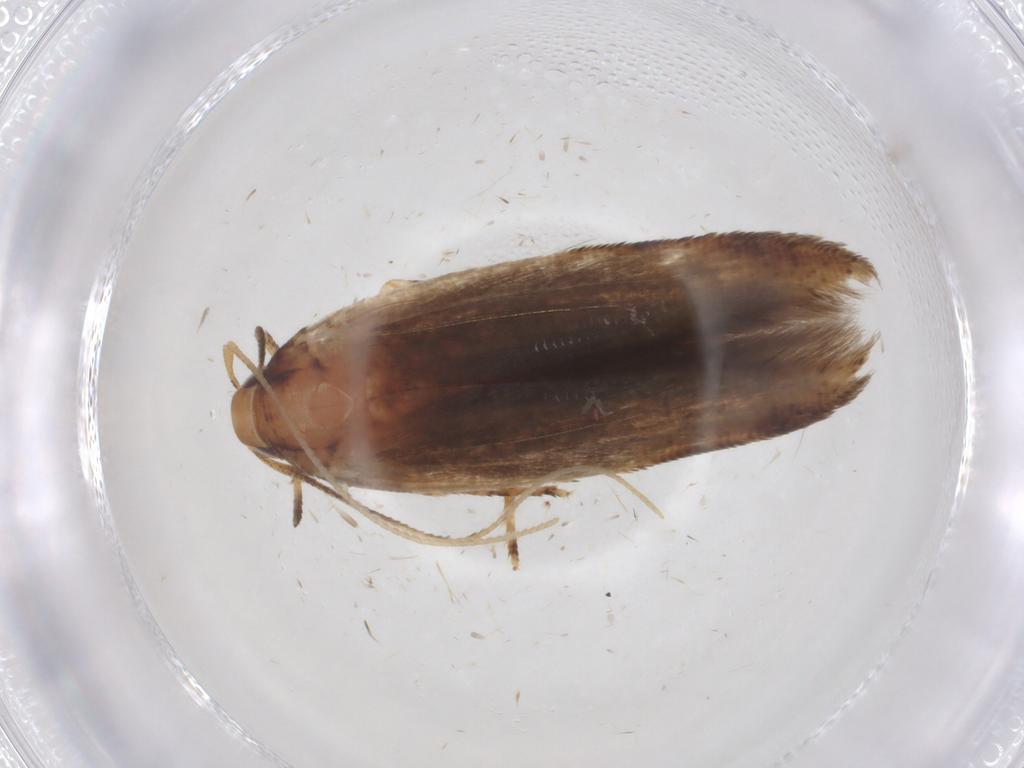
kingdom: Animalia
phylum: Arthropoda
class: Insecta
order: Lepidoptera
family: Cosmopterigidae
